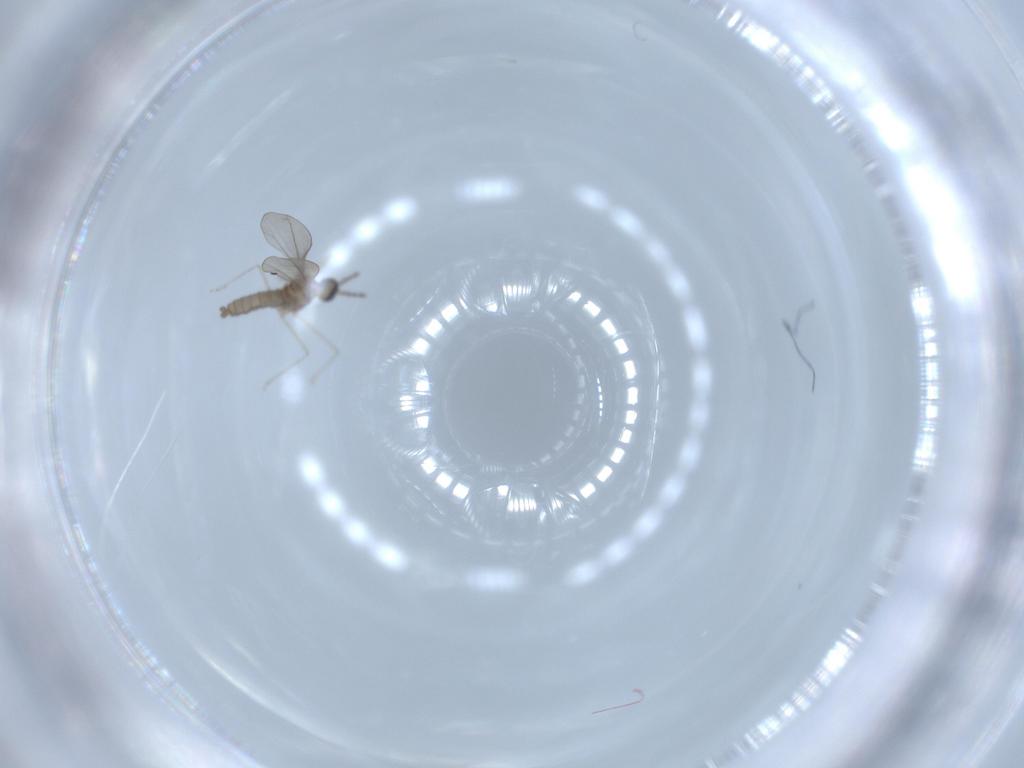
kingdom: Animalia
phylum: Arthropoda
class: Insecta
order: Diptera
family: Cecidomyiidae
